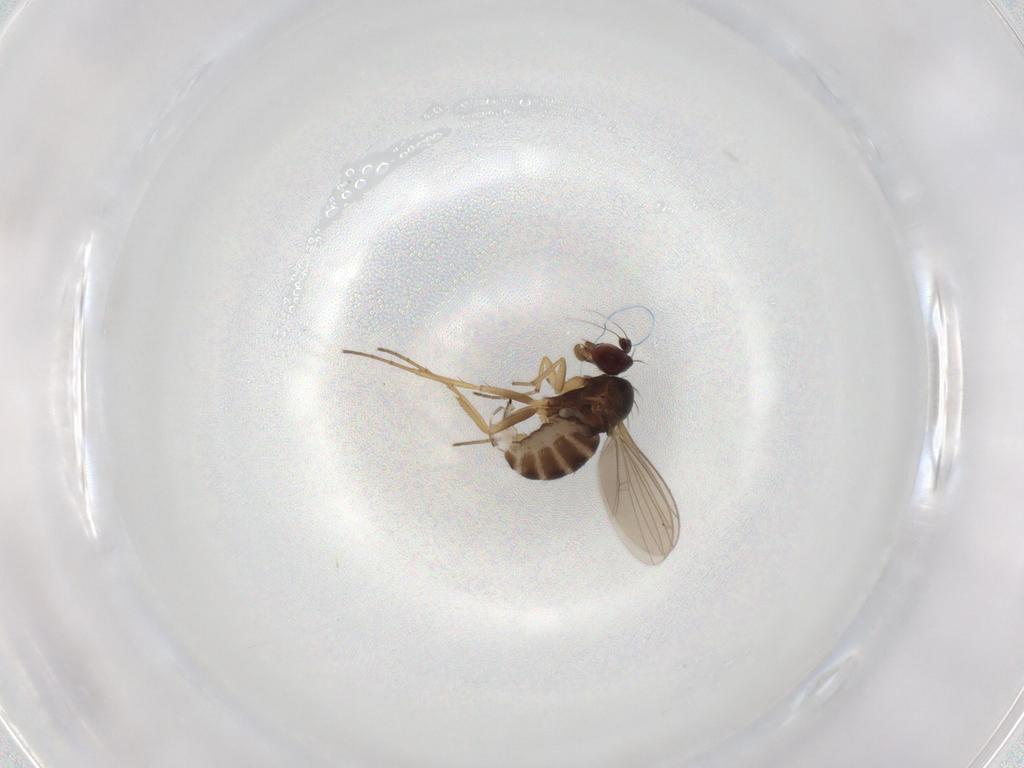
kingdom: Animalia
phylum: Arthropoda
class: Insecta
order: Diptera
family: Dolichopodidae
